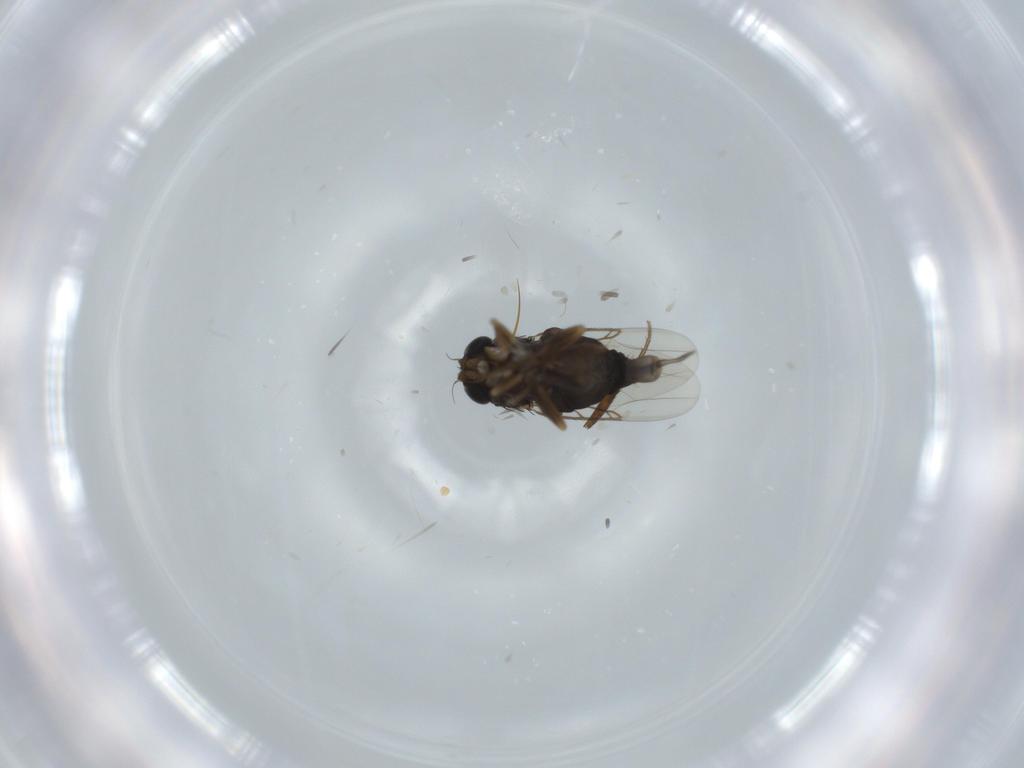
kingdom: Animalia
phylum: Arthropoda
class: Insecta
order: Diptera
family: Phoridae
